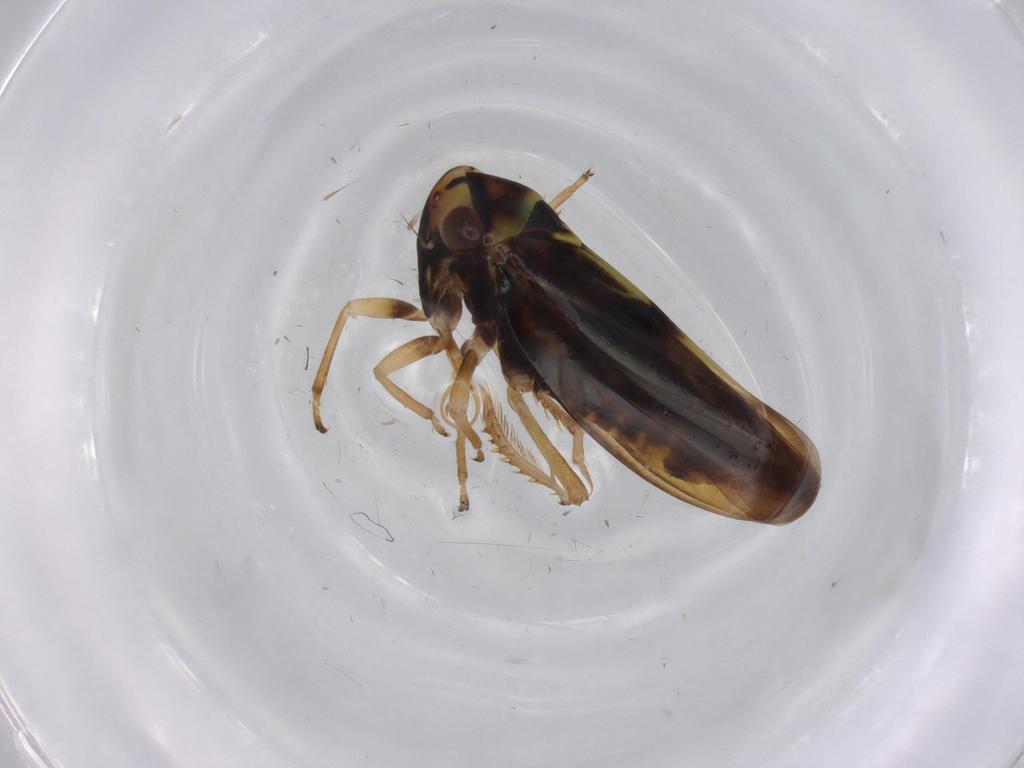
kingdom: Animalia
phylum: Arthropoda
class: Insecta
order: Hemiptera
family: Cicadellidae
